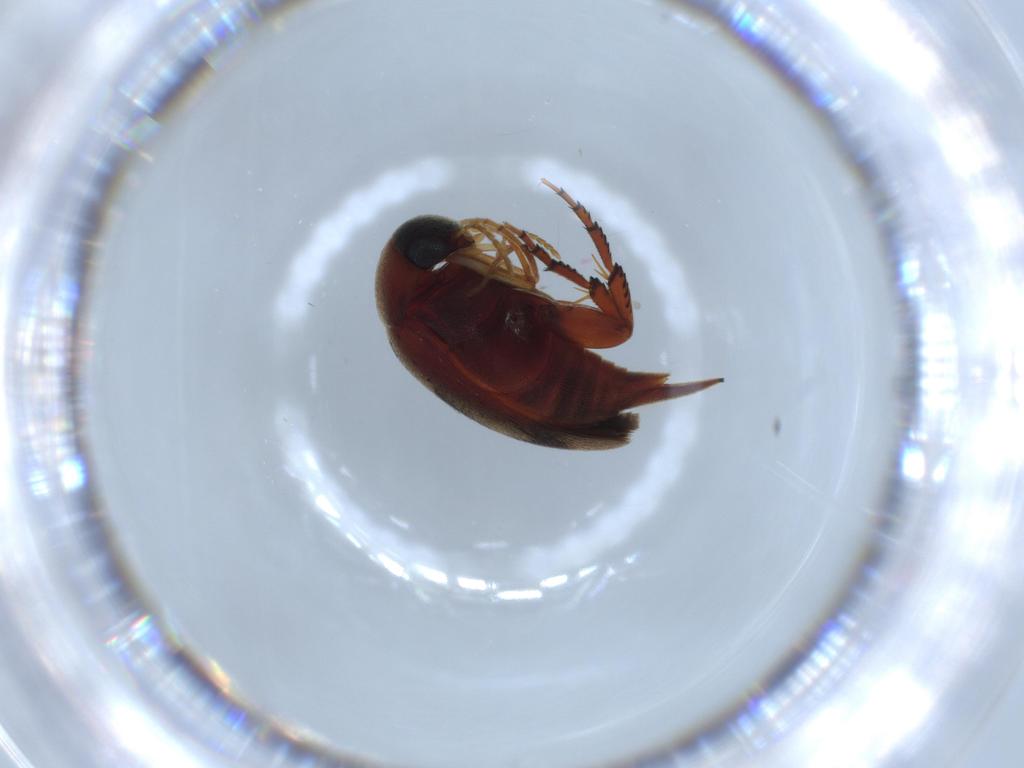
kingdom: Animalia
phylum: Arthropoda
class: Insecta
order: Coleoptera
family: Mordellidae
